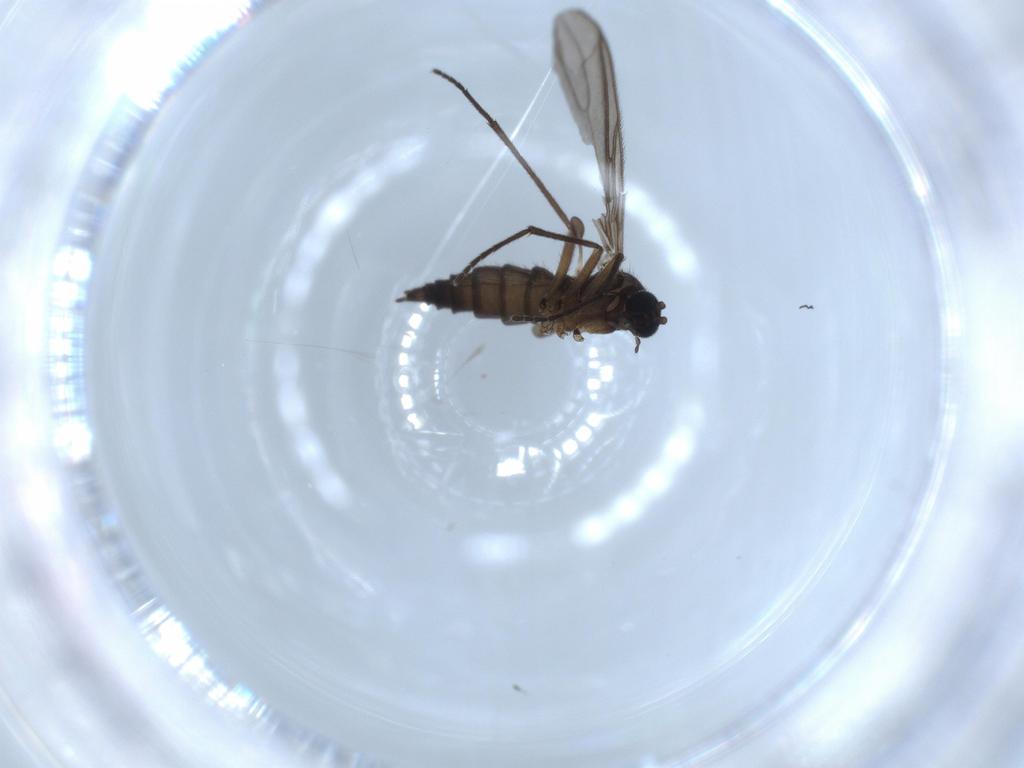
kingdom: Animalia
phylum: Arthropoda
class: Insecta
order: Diptera
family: Sciaridae
